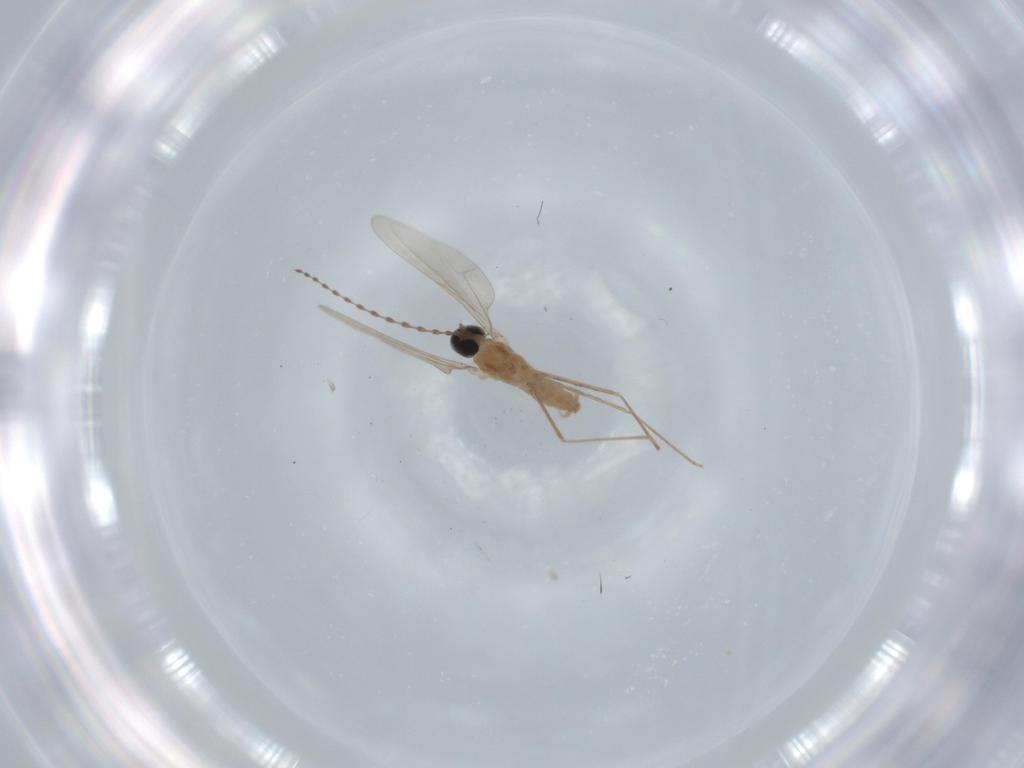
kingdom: Animalia
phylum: Arthropoda
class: Insecta
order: Diptera
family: Cecidomyiidae
